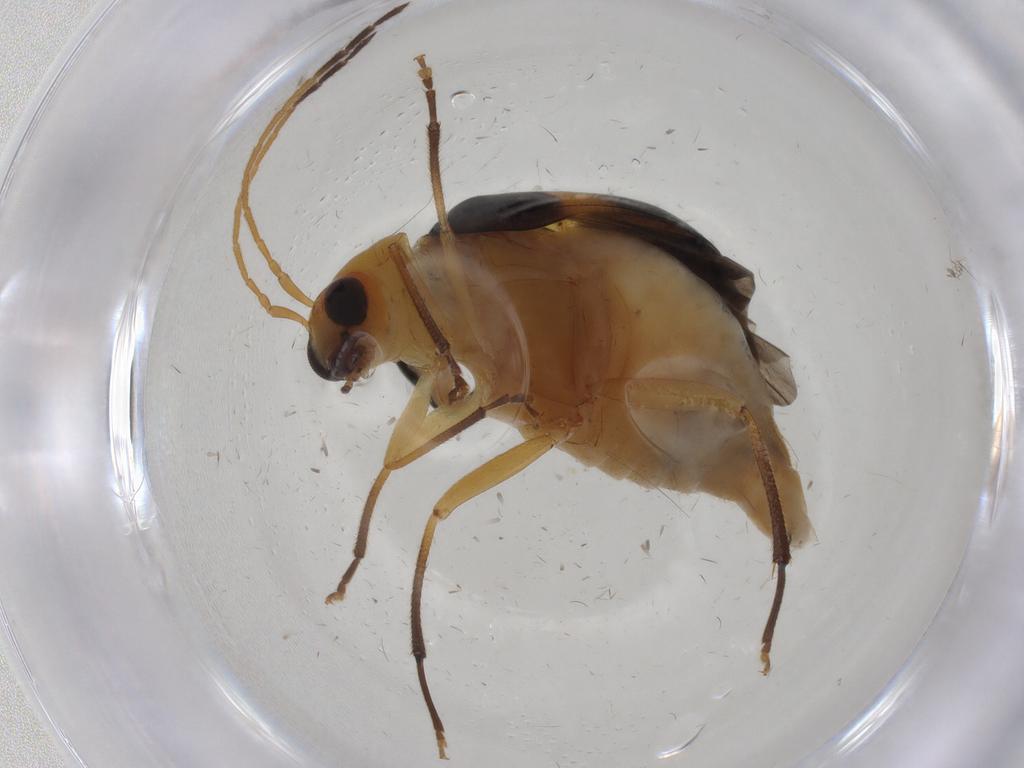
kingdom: Animalia
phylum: Arthropoda
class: Insecta
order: Coleoptera
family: Chrysomelidae
